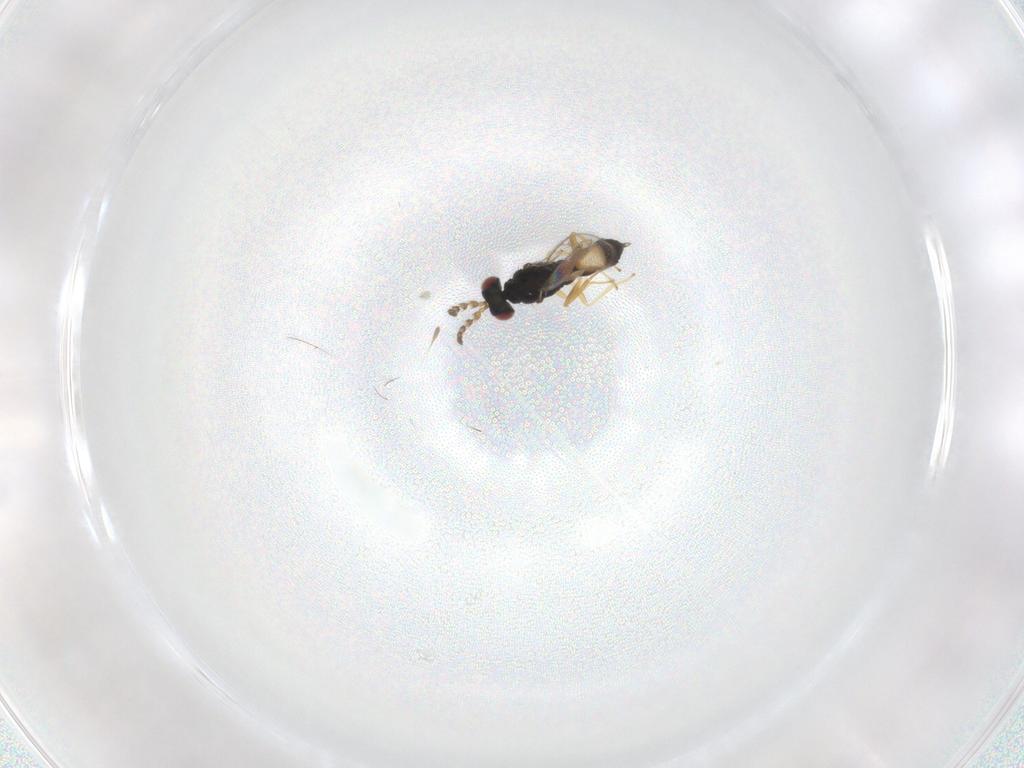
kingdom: Animalia
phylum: Arthropoda
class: Insecta
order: Hymenoptera
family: Eulophidae
